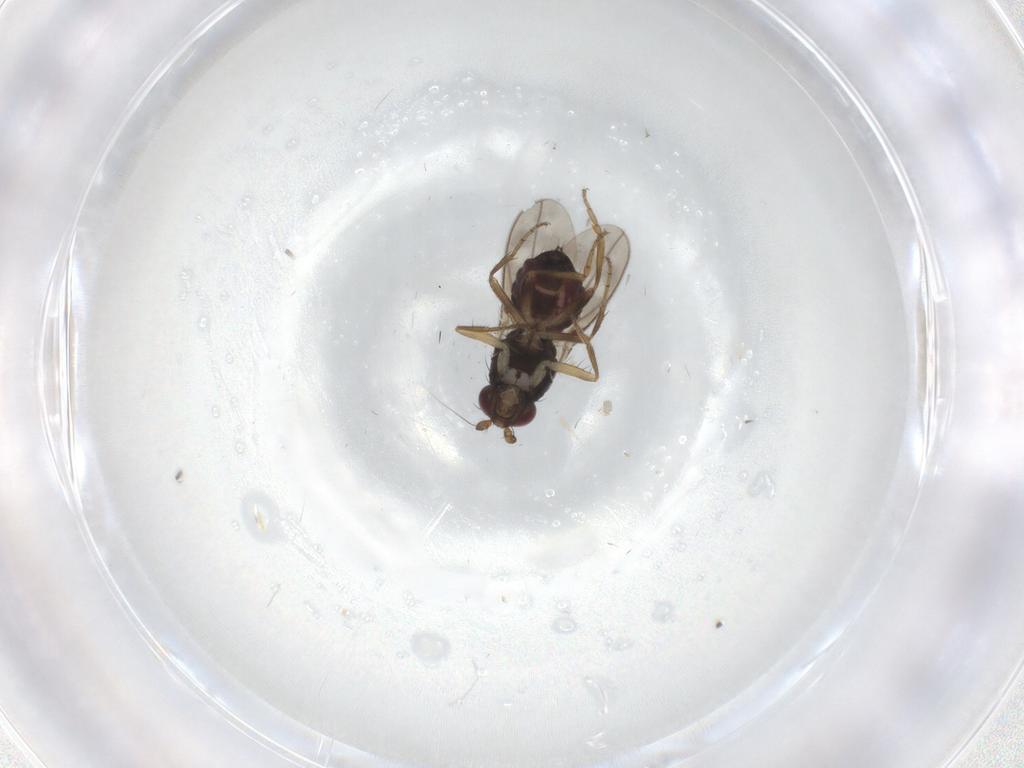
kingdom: Animalia
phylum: Arthropoda
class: Insecta
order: Diptera
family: Sphaeroceridae
